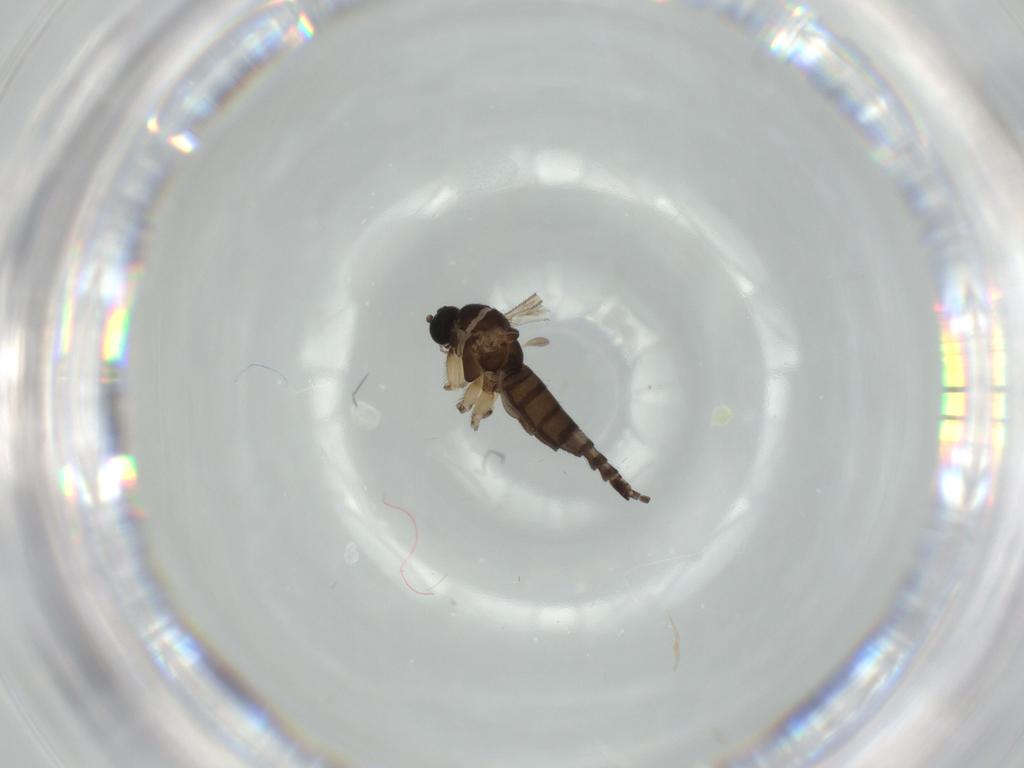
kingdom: Animalia
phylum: Arthropoda
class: Insecta
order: Diptera
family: Sciaridae
